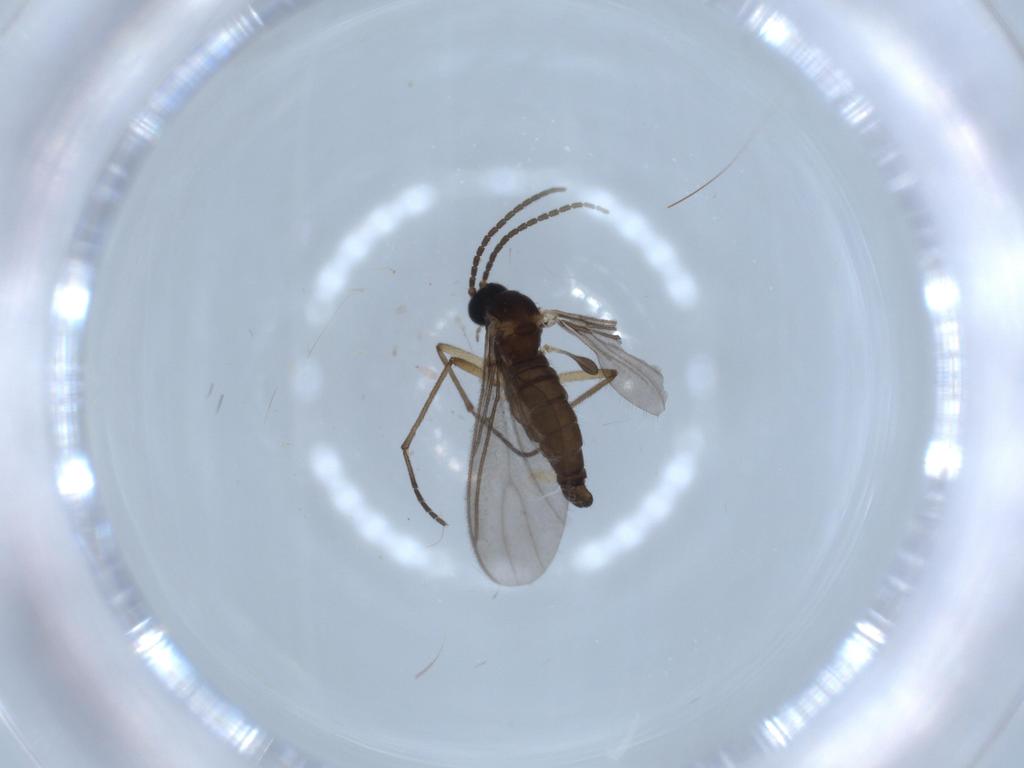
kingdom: Animalia
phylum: Arthropoda
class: Insecta
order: Diptera
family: Sciaridae
